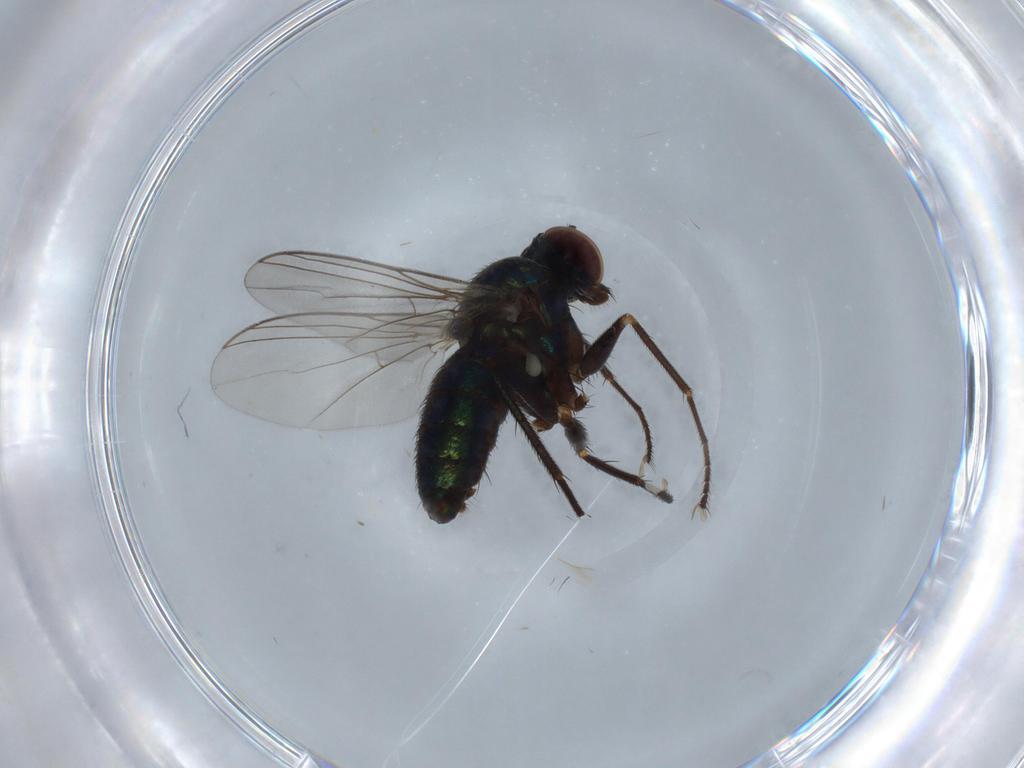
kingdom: Animalia
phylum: Arthropoda
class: Insecta
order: Diptera
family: Dolichopodidae
